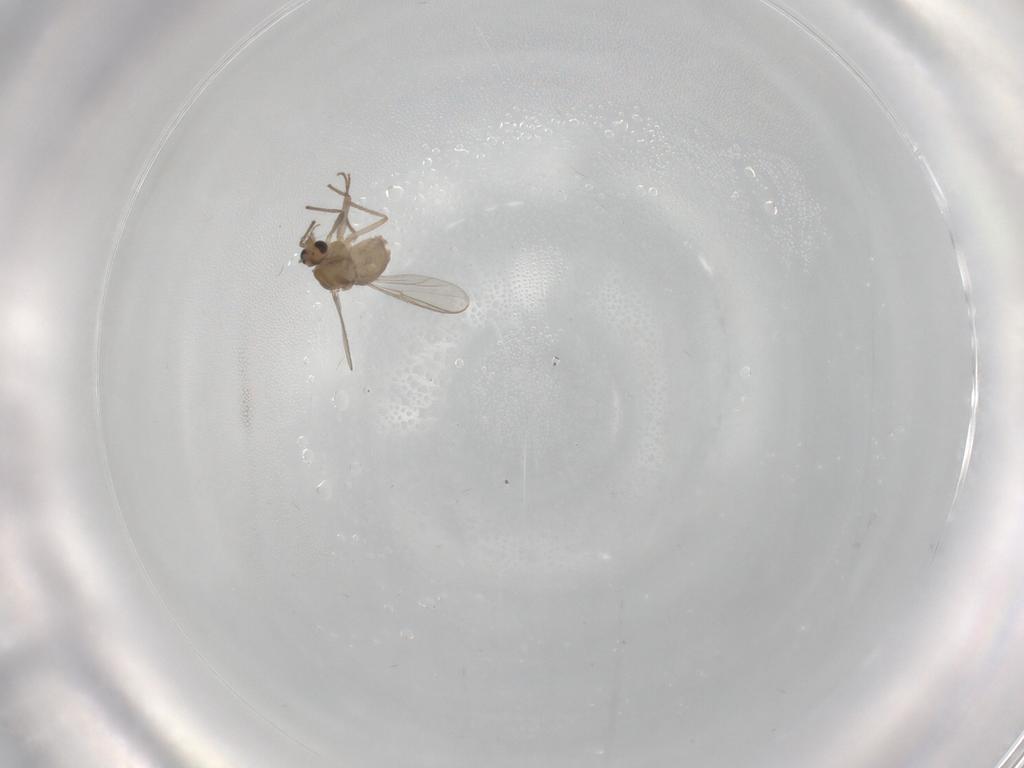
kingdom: Animalia
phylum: Arthropoda
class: Insecta
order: Diptera
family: Chironomidae
